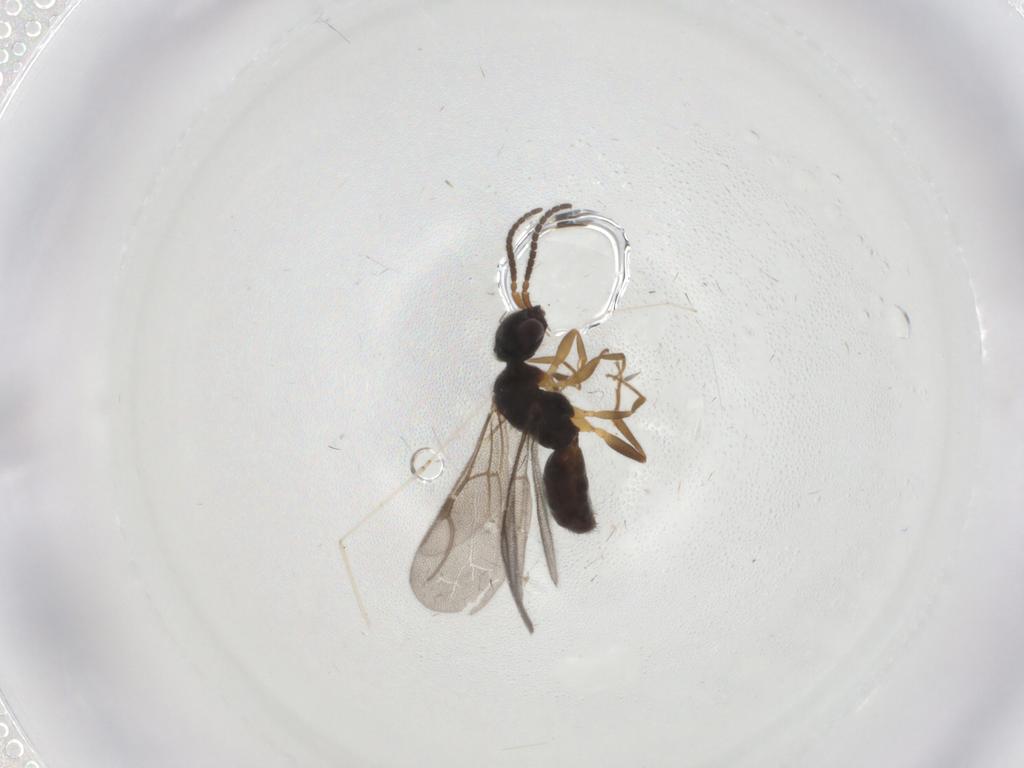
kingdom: Animalia
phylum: Arthropoda
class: Insecta
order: Hymenoptera
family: Bethylidae
